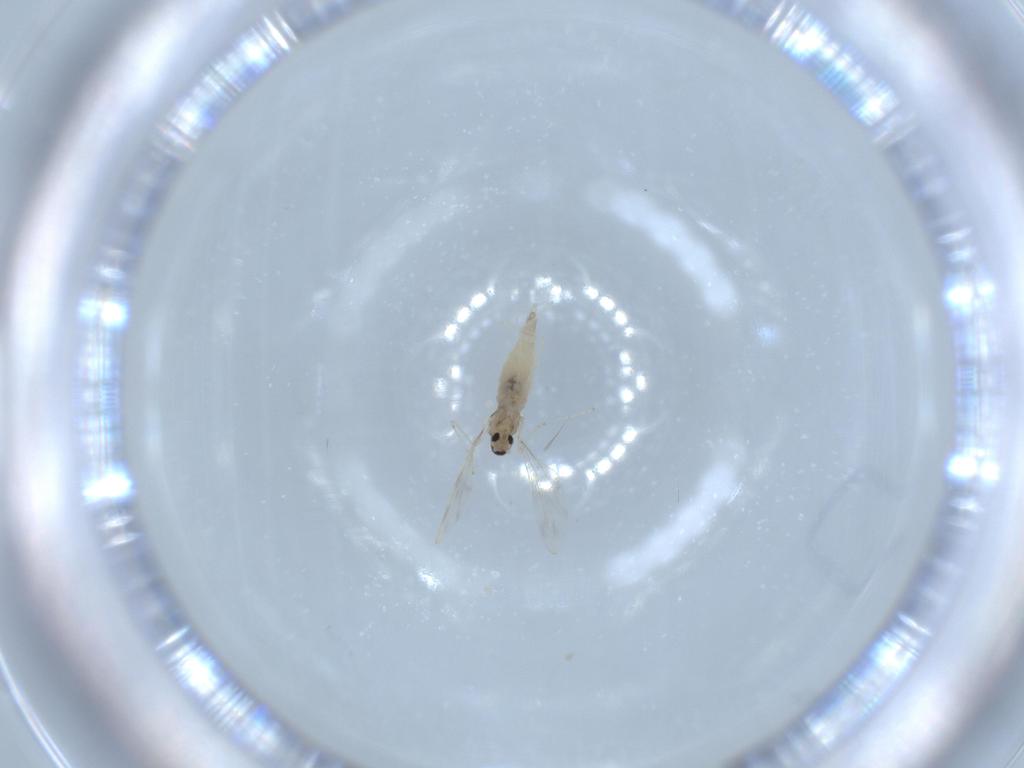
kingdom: Animalia
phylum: Arthropoda
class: Insecta
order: Diptera
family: Cecidomyiidae
